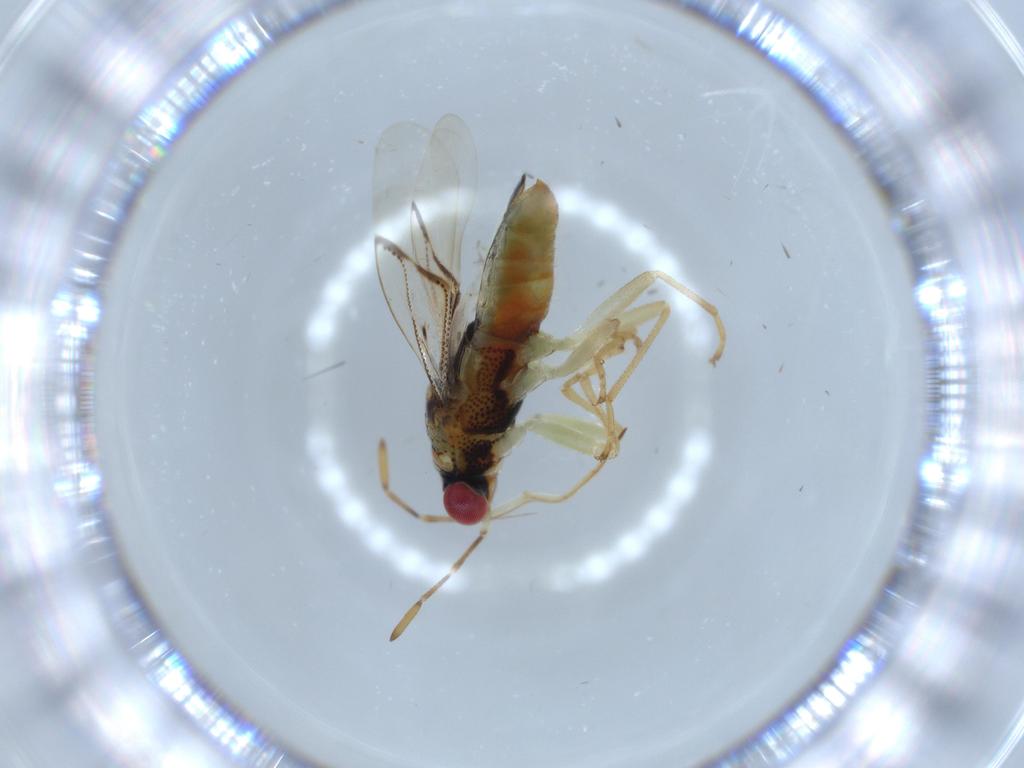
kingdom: Animalia
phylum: Arthropoda
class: Insecta
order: Hemiptera
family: Geocoridae
